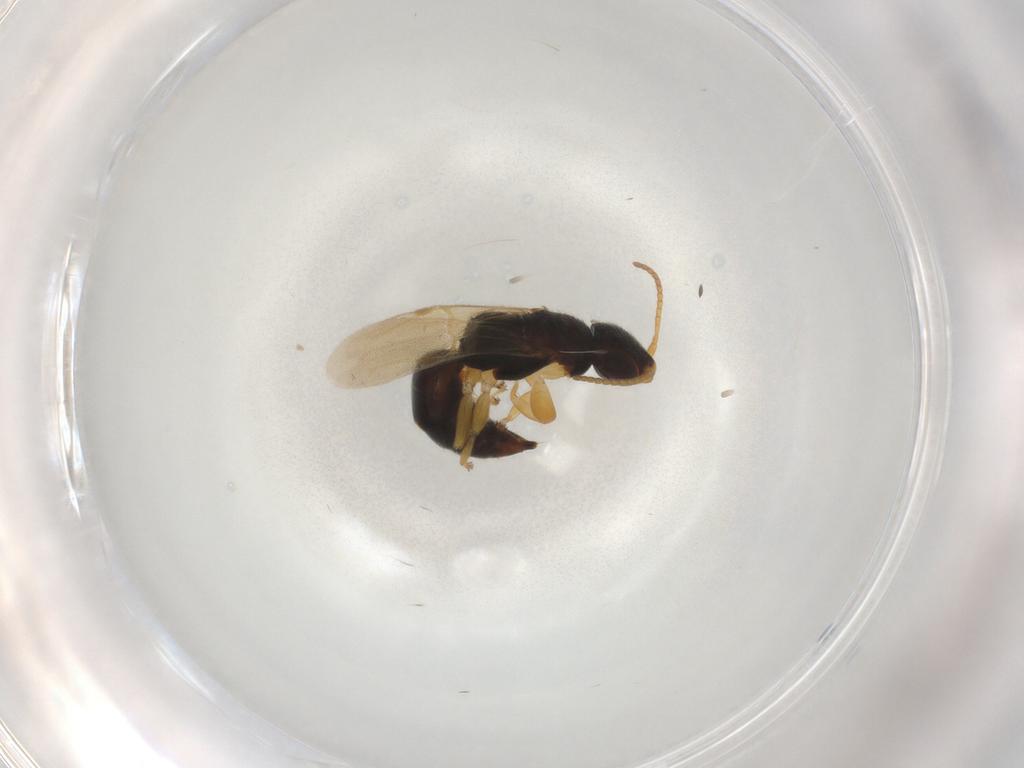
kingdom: Animalia
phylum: Arthropoda
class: Insecta
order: Hymenoptera
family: Bethylidae
